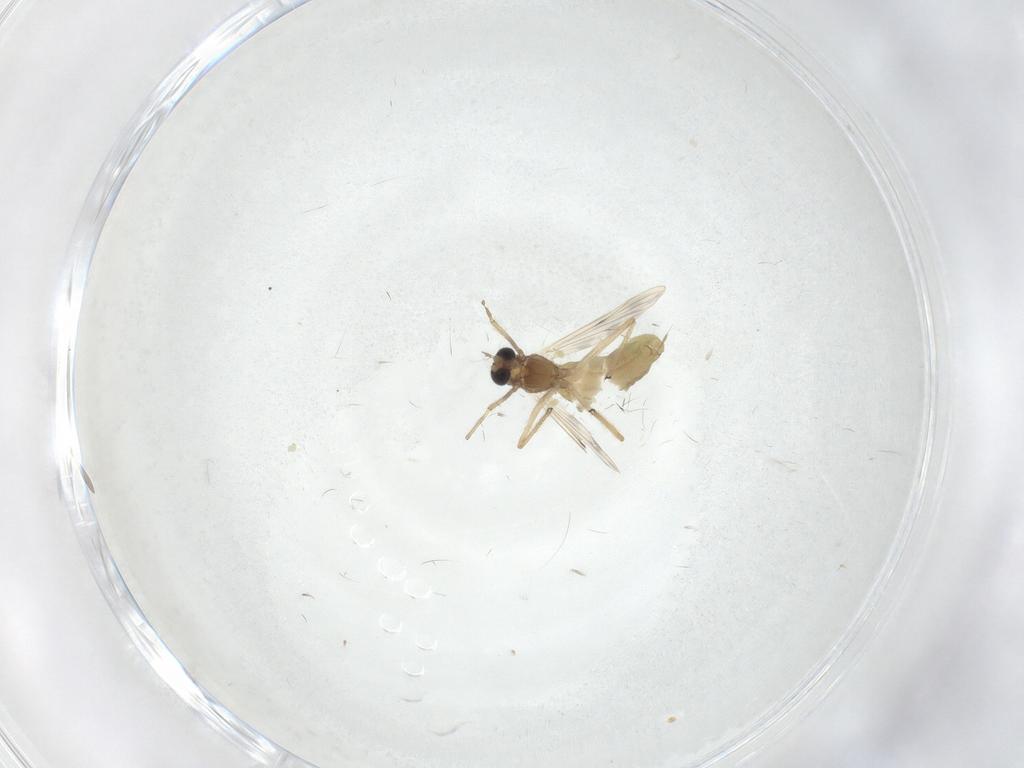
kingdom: Animalia
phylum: Arthropoda
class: Insecta
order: Diptera
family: Chironomidae
